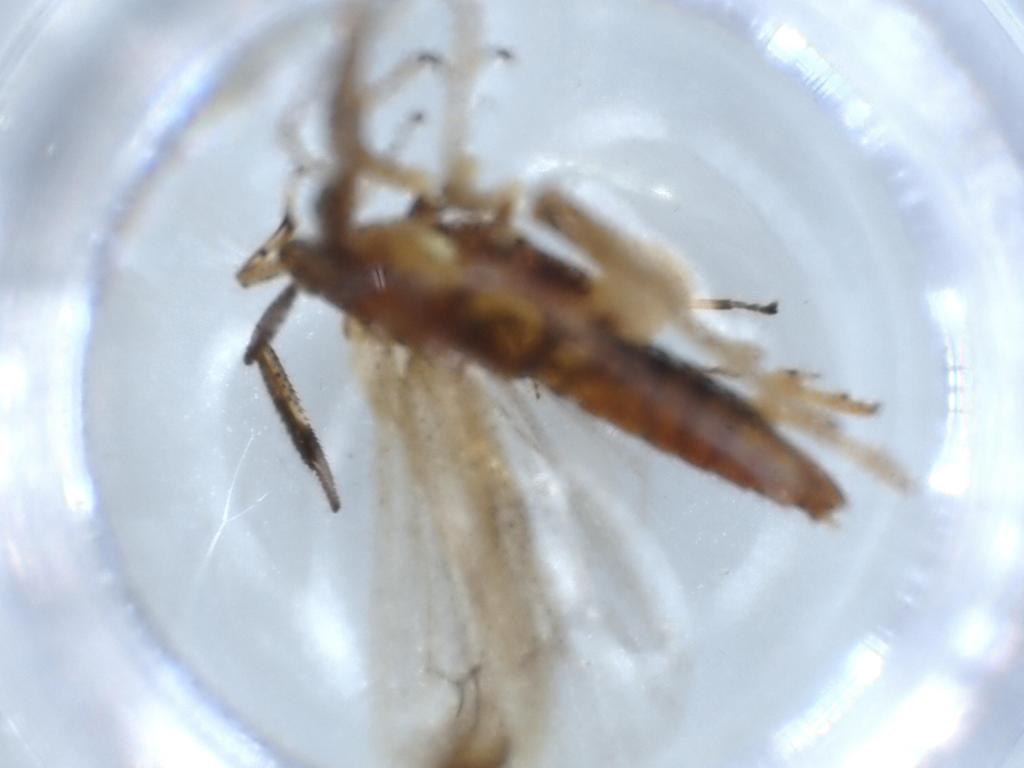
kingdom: Animalia
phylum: Arthropoda
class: Insecta
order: Hemiptera
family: Delphacidae
